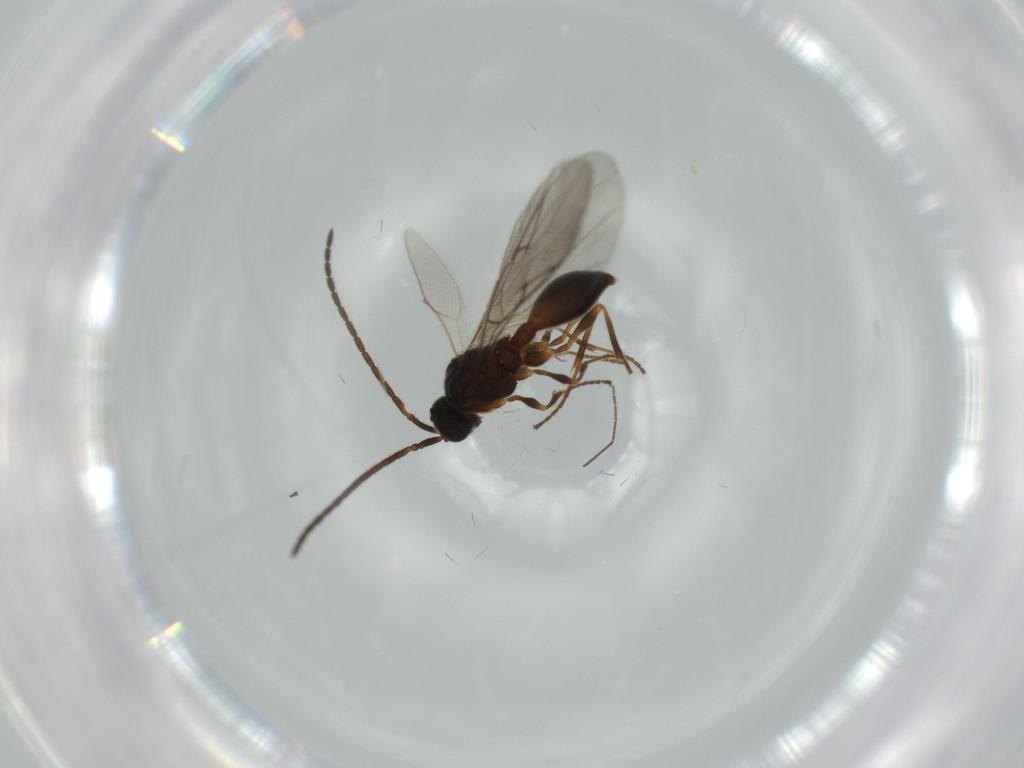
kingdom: Animalia
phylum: Arthropoda
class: Insecta
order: Hymenoptera
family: Diapriidae
